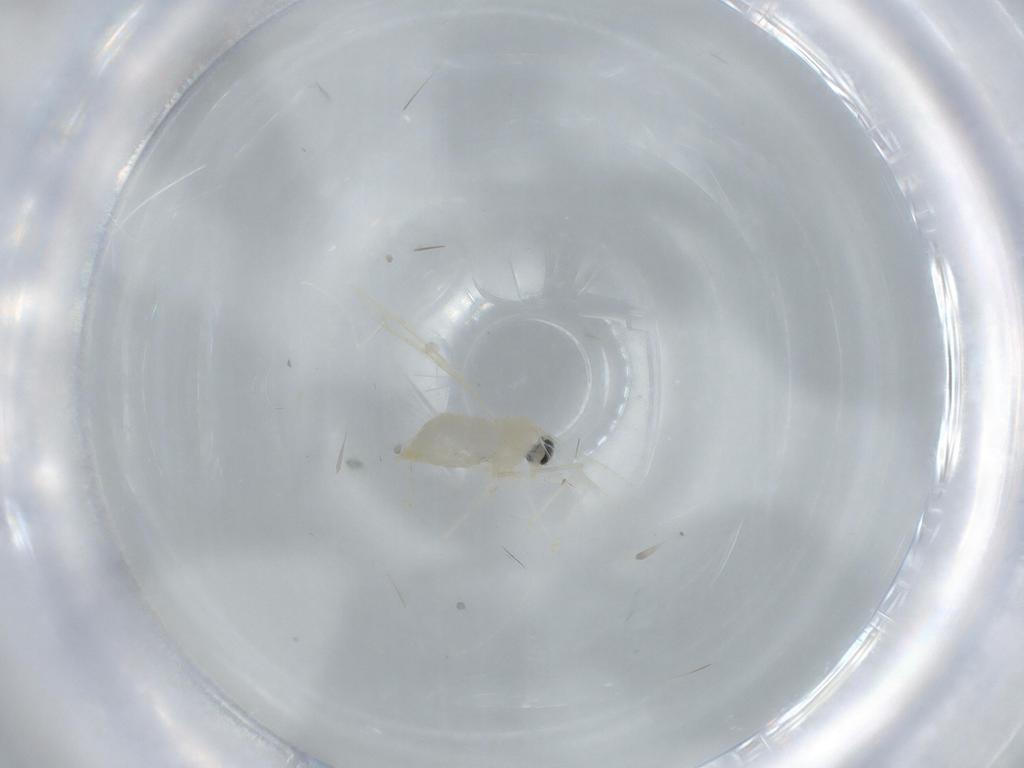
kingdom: Animalia
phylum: Arthropoda
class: Insecta
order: Diptera
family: Cecidomyiidae
